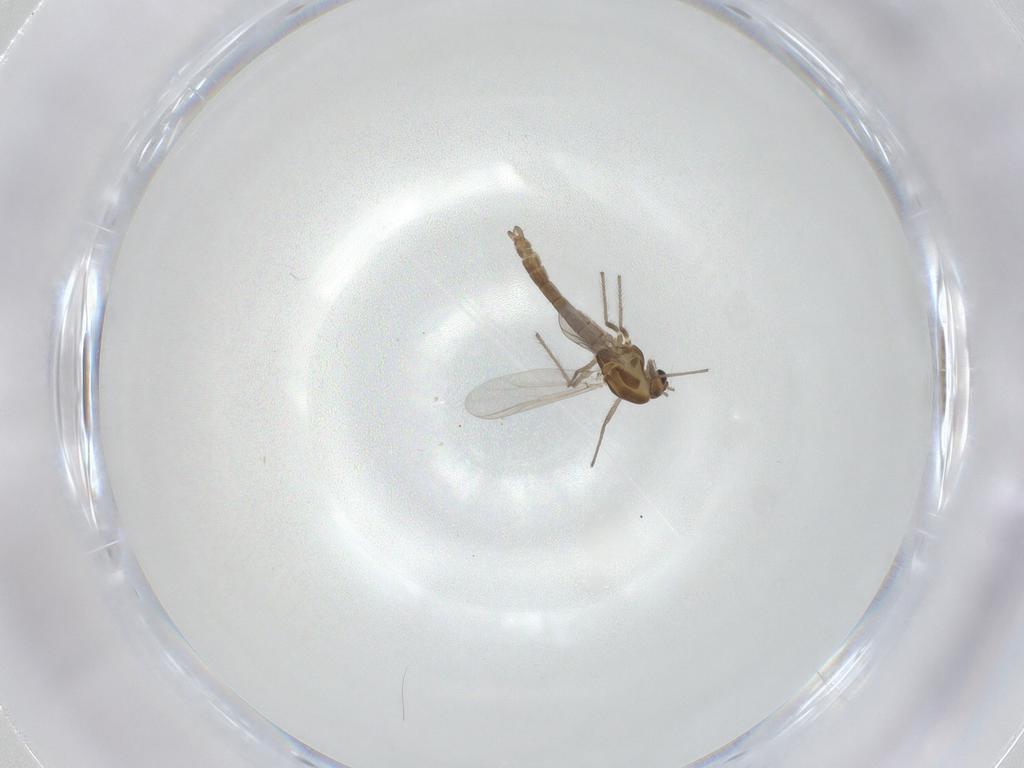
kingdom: Animalia
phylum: Arthropoda
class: Insecta
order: Diptera
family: Chironomidae
